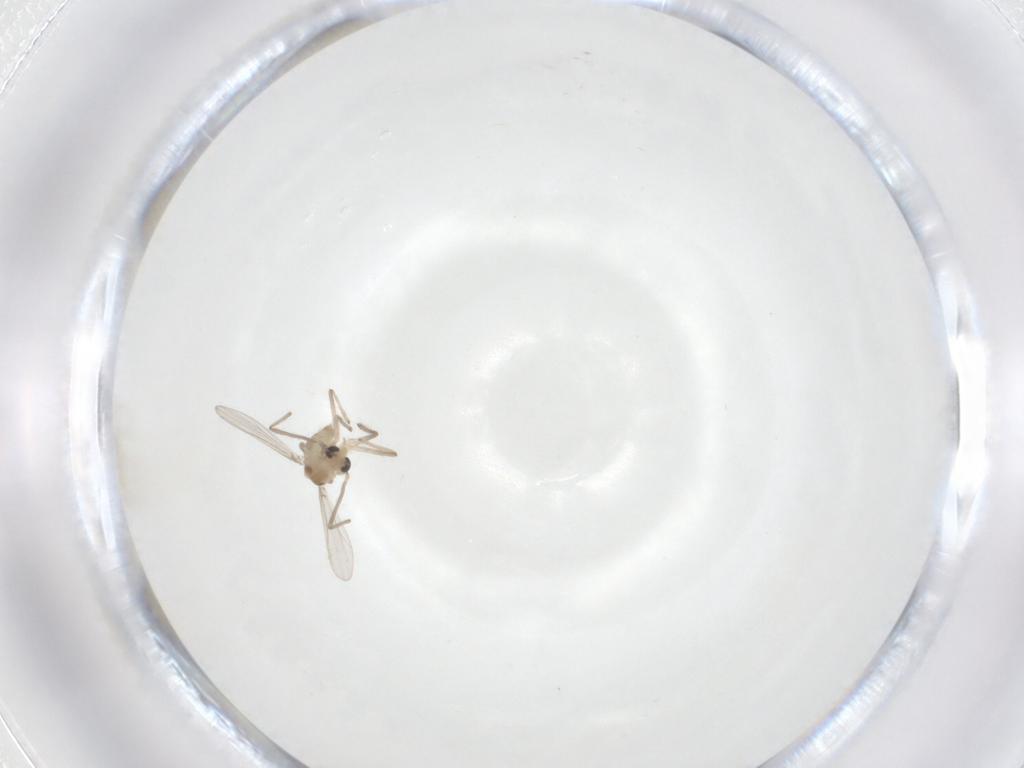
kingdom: Animalia
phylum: Arthropoda
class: Insecta
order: Diptera
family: Chironomidae
